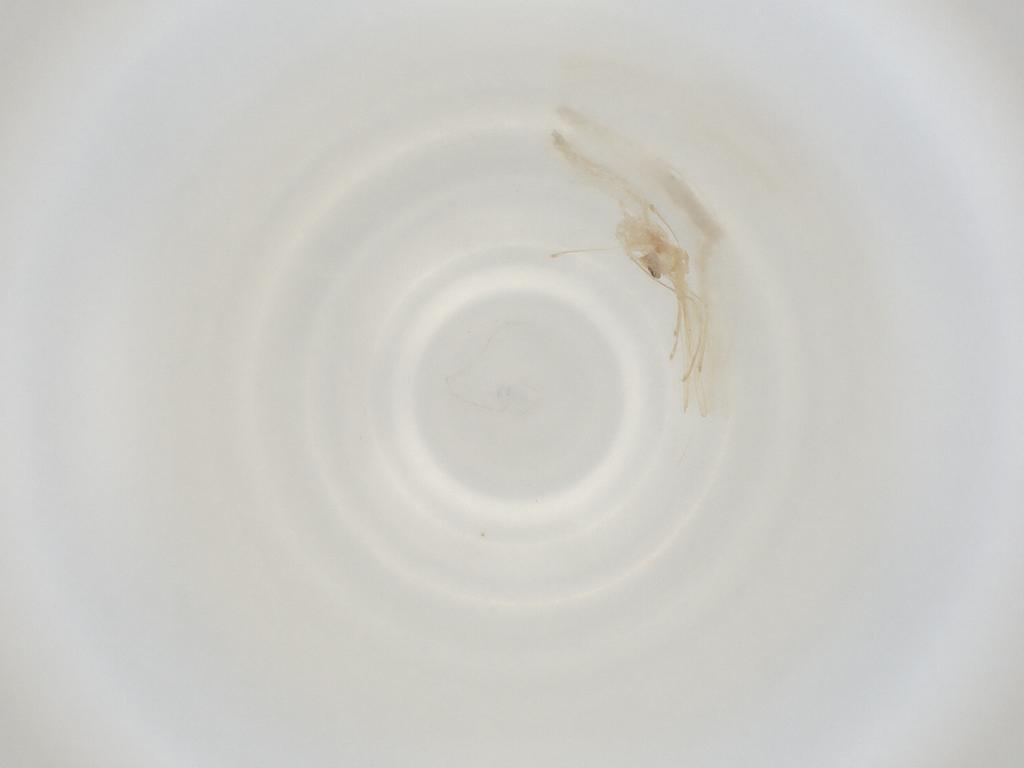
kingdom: Animalia
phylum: Arthropoda
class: Insecta
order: Diptera
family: Cecidomyiidae
